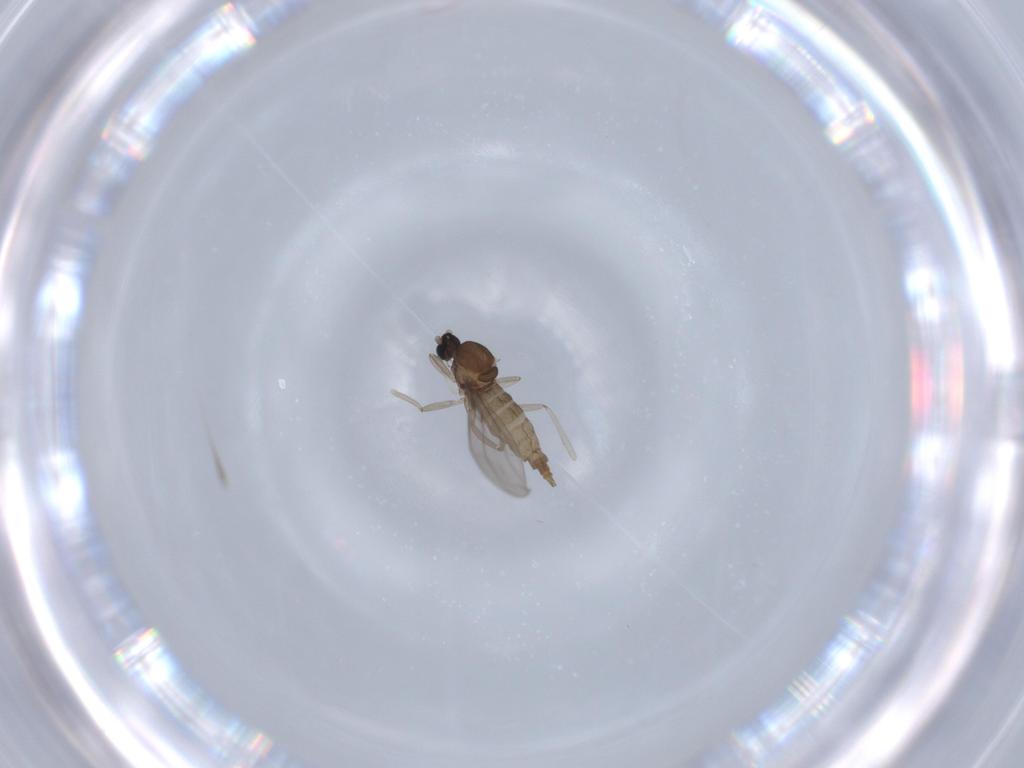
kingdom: Animalia
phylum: Arthropoda
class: Insecta
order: Diptera
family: Cecidomyiidae
